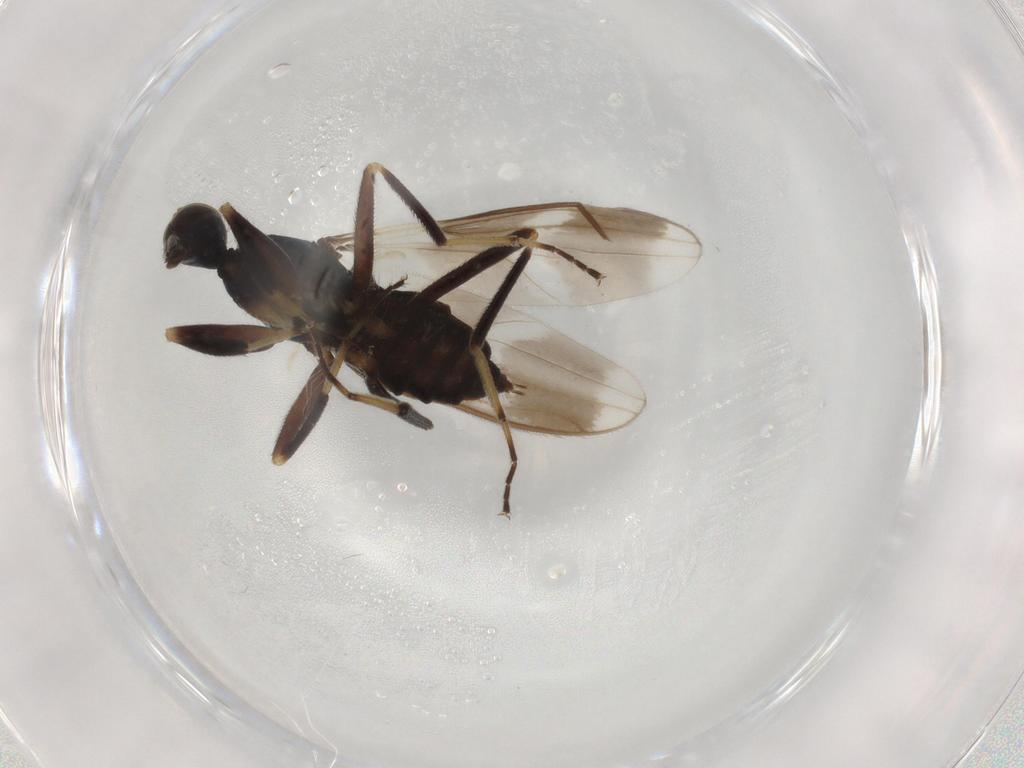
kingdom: Animalia
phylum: Arthropoda
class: Insecta
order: Diptera
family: Hybotidae
